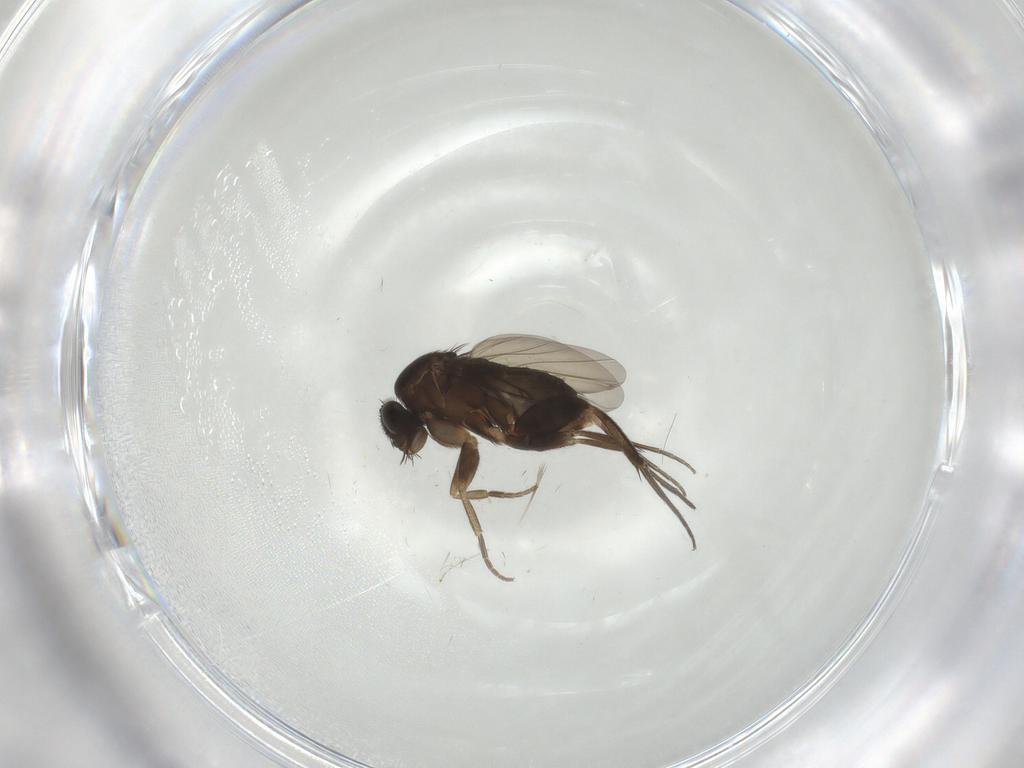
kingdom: Animalia
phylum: Arthropoda
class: Insecta
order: Diptera
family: Phoridae
